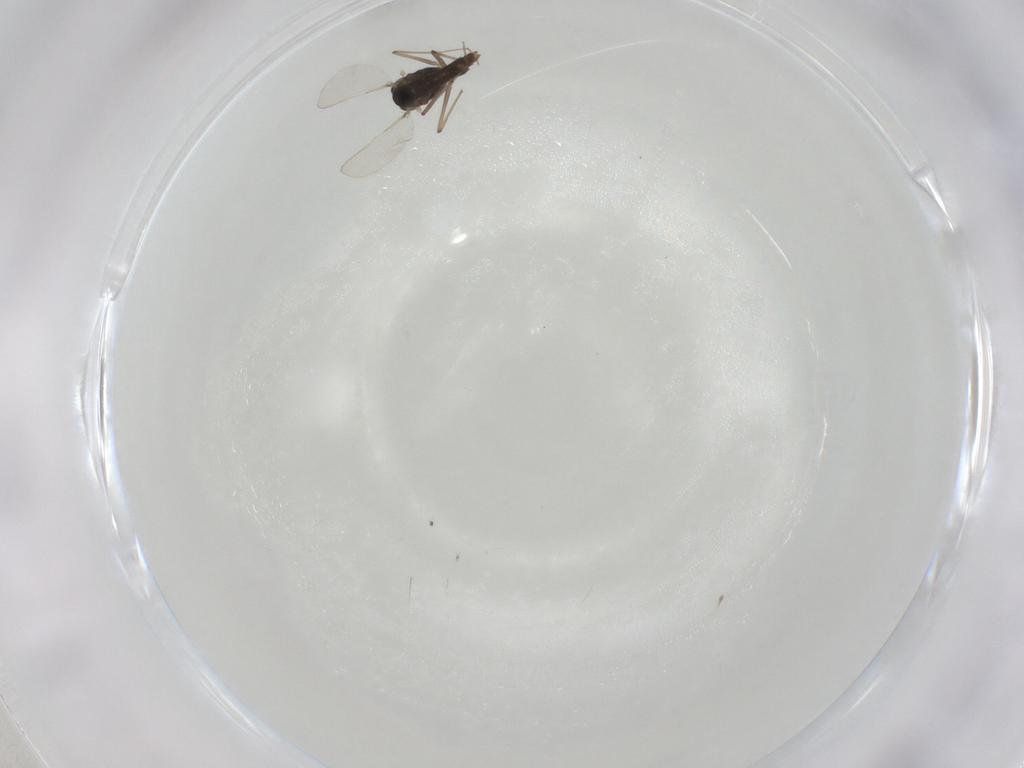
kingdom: Animalia
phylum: Arthropoda
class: Insecta
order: Diptera
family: Chironomidae
